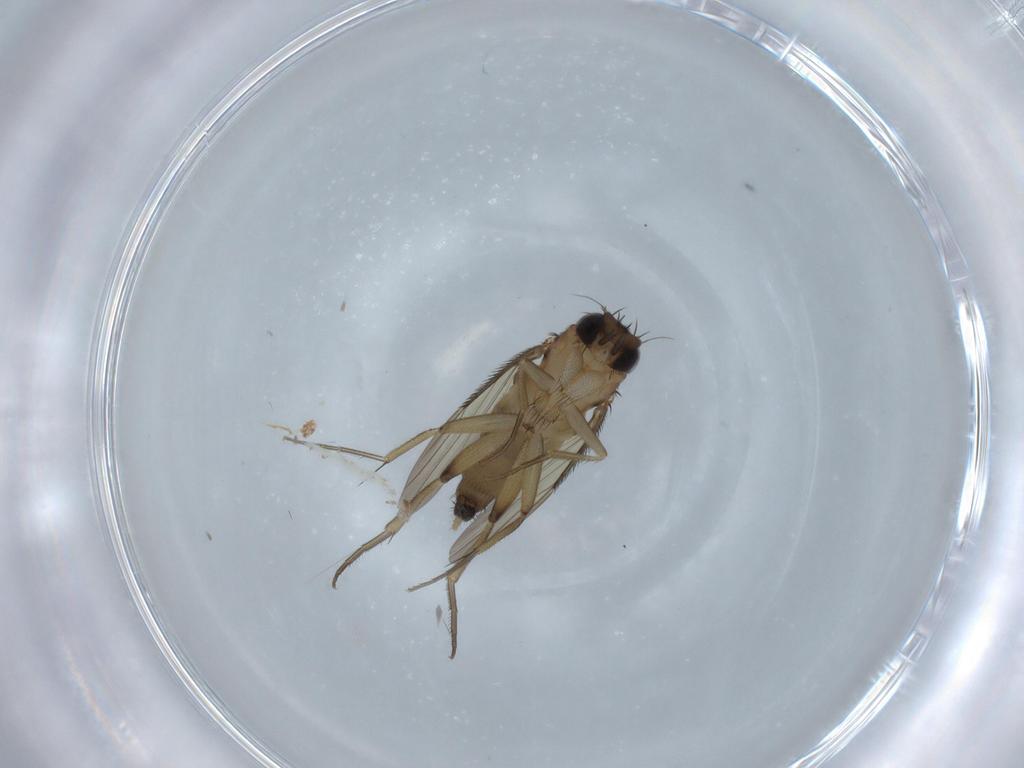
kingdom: Animalia
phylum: Arthropoda
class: Insecta
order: Diptera
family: Phoridae
